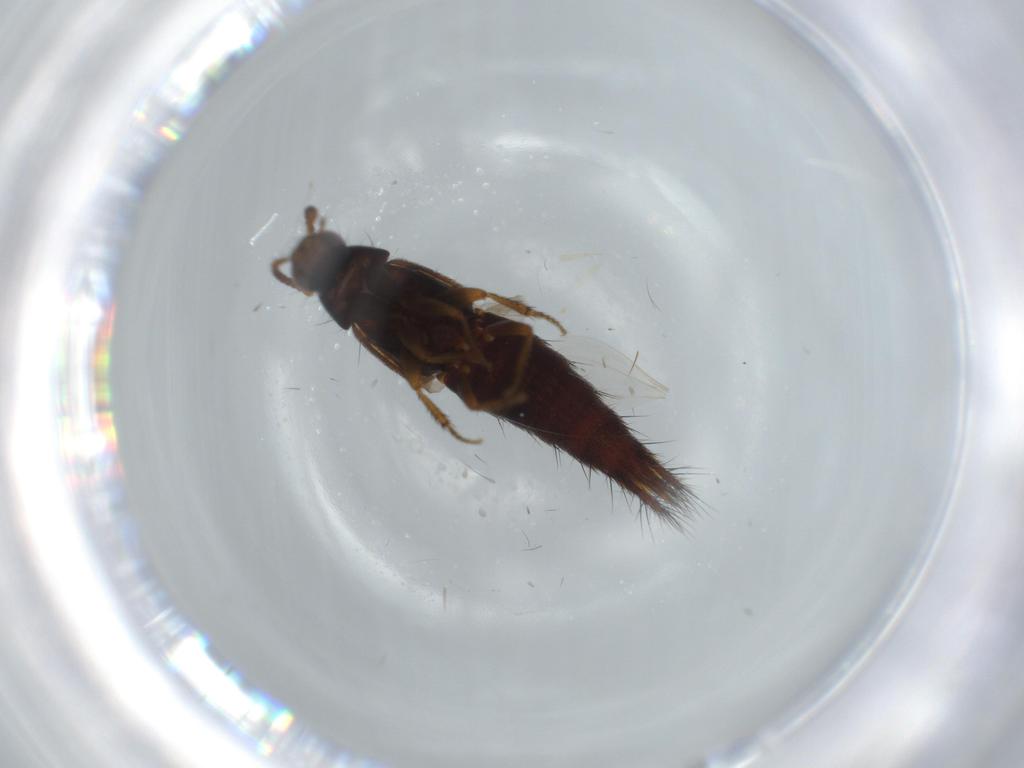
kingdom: Animalia
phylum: Arthropoda
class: Insecta
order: Coleoptera
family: Staphylinidae
